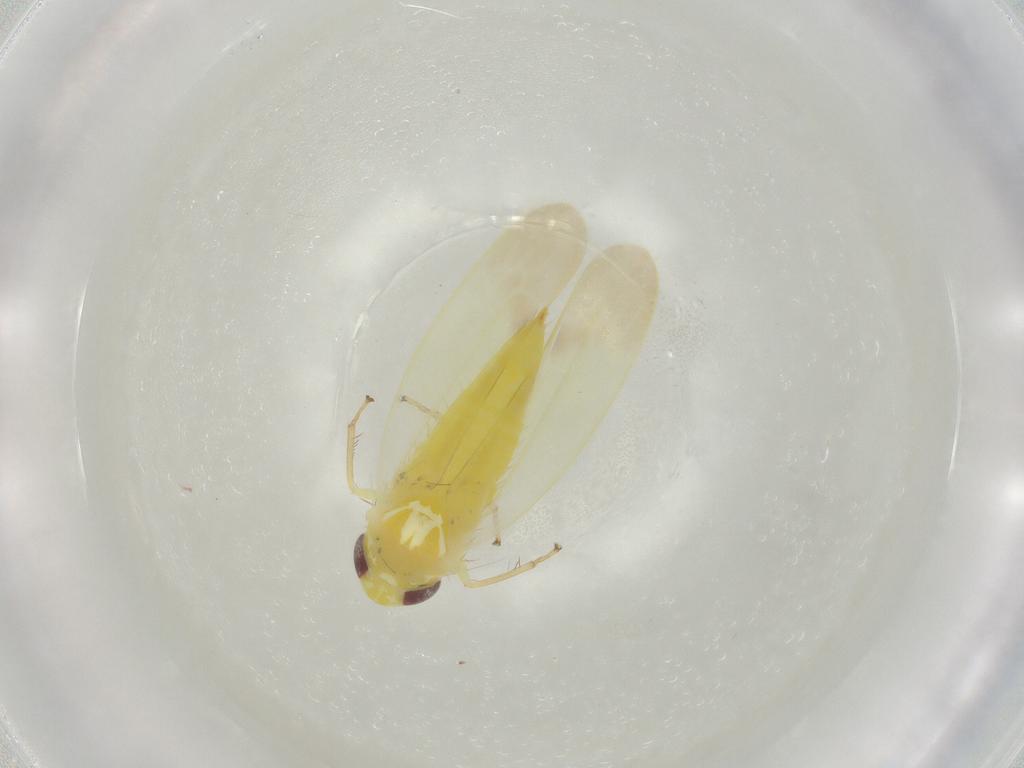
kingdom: Animalia
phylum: Arthropoda
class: Insecta
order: Hemiptera
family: Cicadellidae
